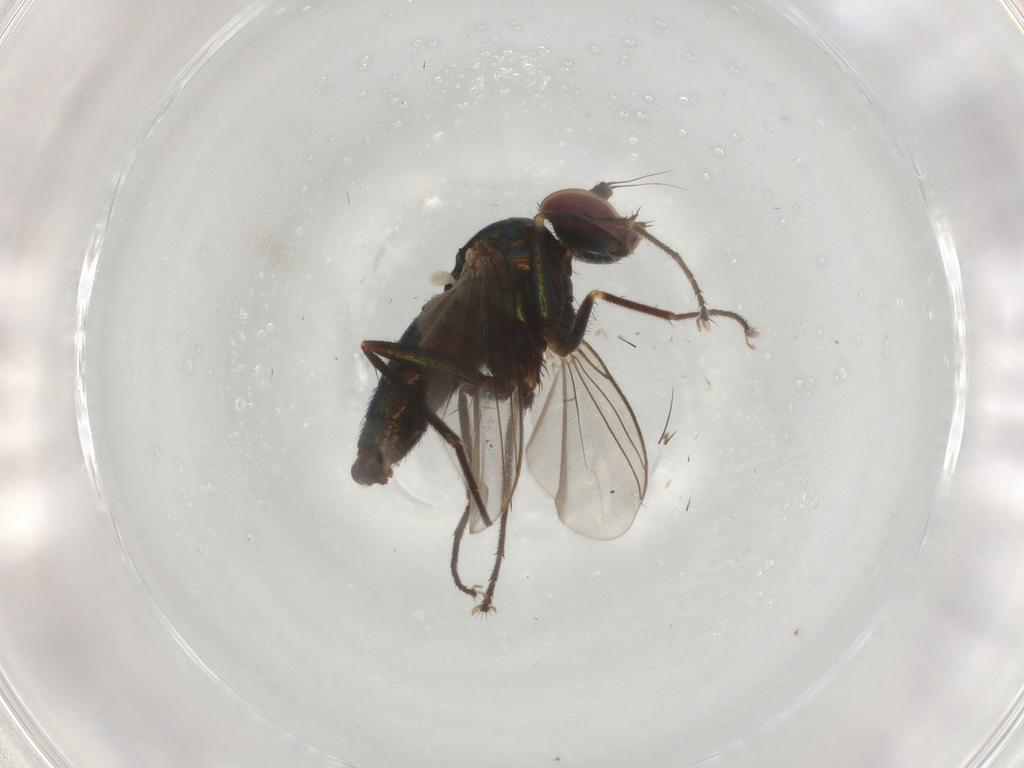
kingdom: Animalia
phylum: Arthropoda
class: Insecta
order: Diptera
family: Dolichopodidae
